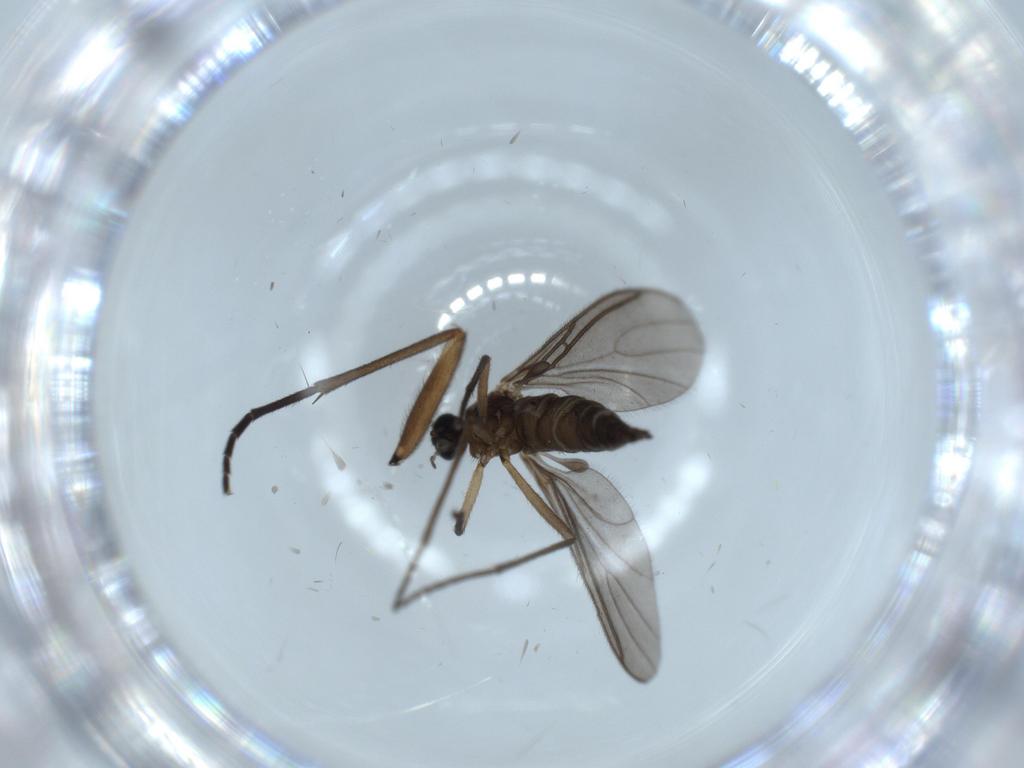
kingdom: Animalia
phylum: Arthropoda
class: Insecta
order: Diptera
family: Sciaridae
